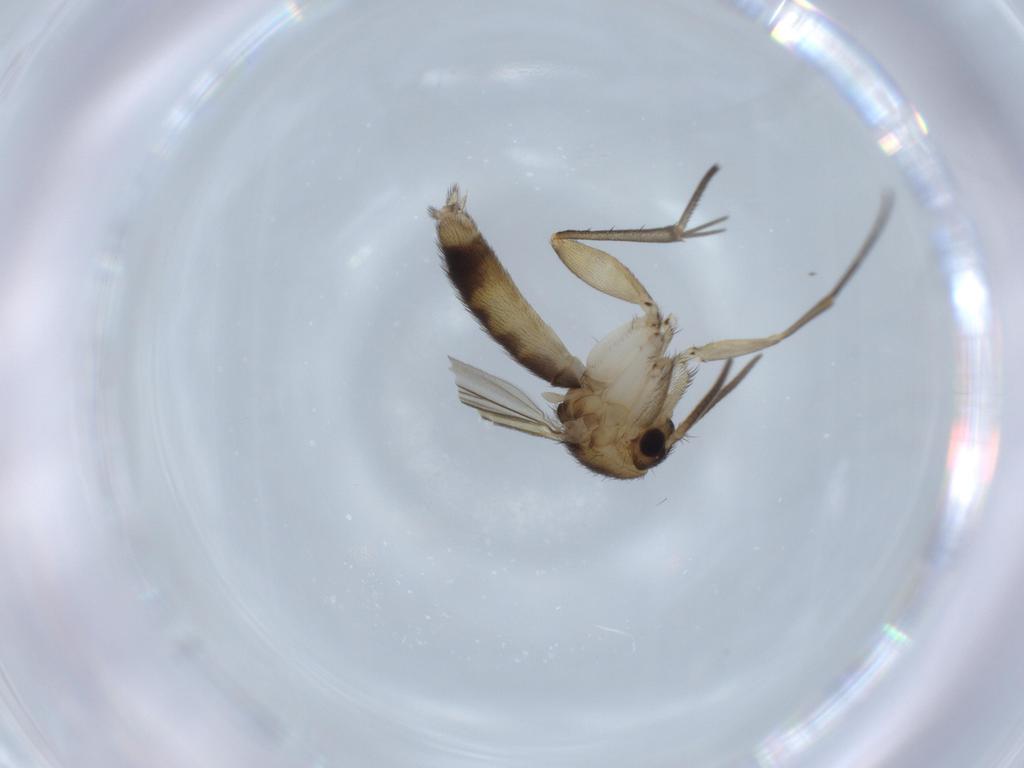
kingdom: Animalia
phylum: Arthropoda
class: Insecta
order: Diptera
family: Mycetophilidae
